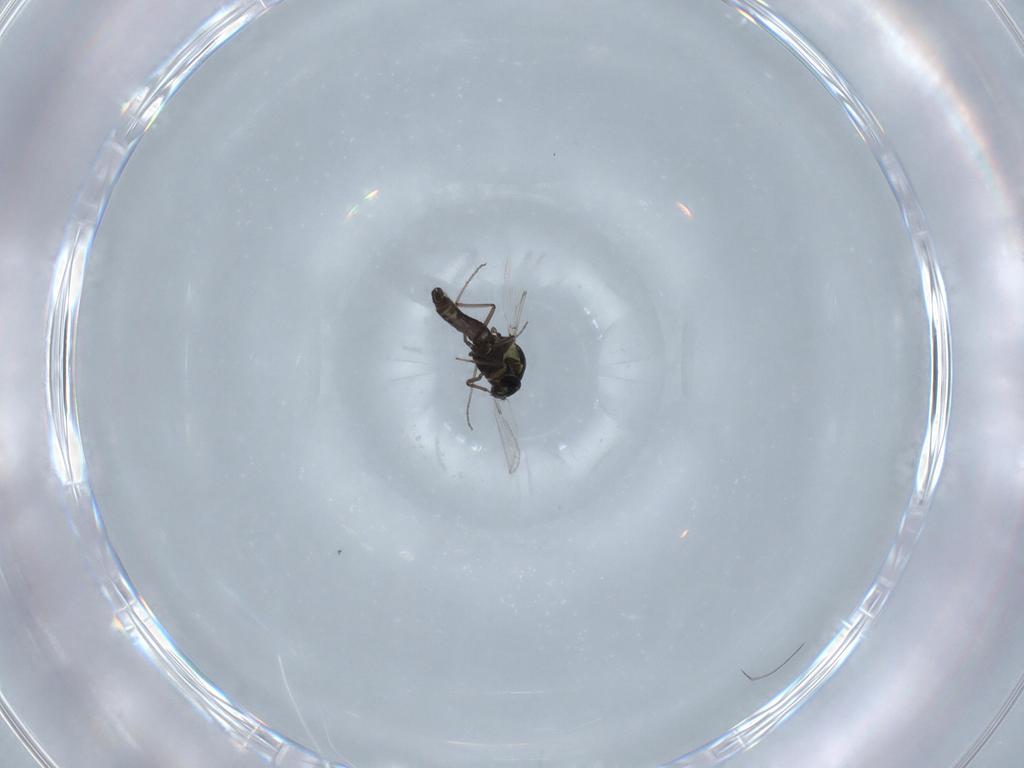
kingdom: Animalia
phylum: Arthropoda
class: Insecta
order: Diptera
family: Ceratopogonidae
